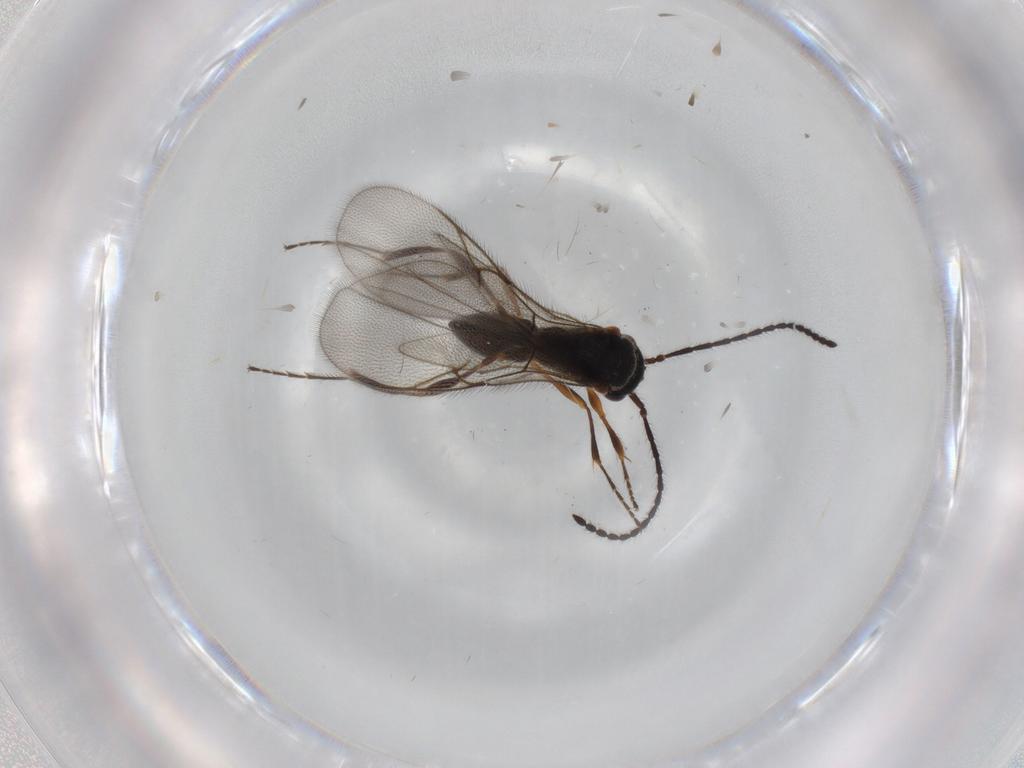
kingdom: Animalia
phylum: Arthropoda
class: Insecta
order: Hymenoptera
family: Diapriidae
